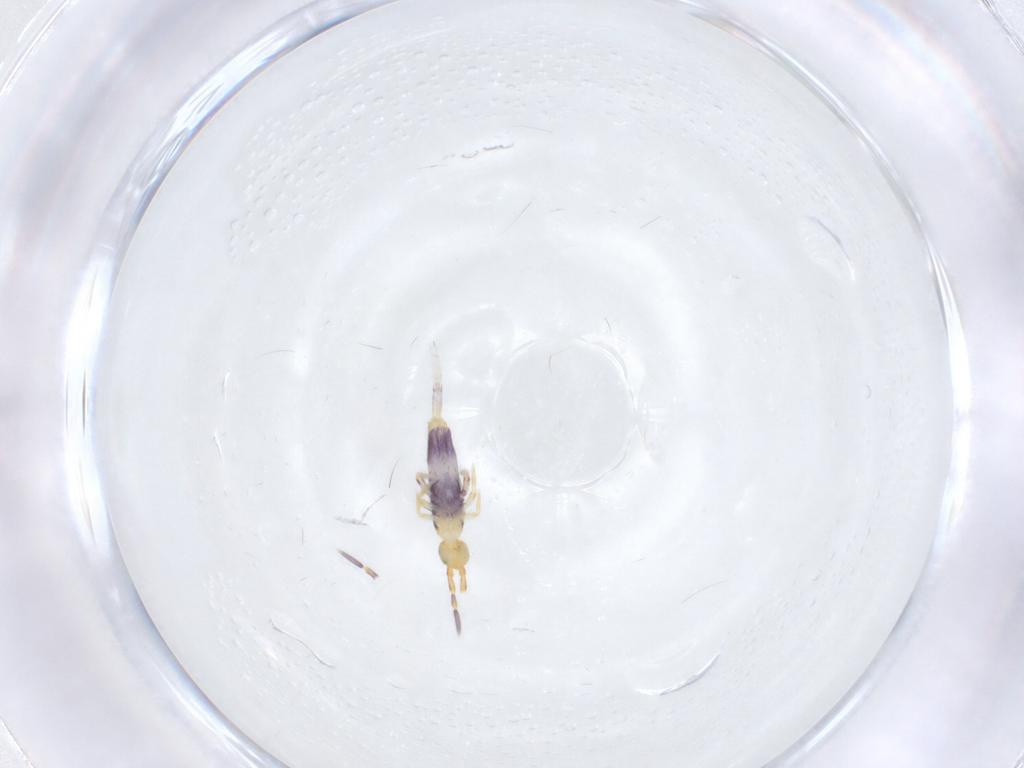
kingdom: Animalia
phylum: Arthropoda
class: Collembola
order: Entomobryomorpha
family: Entomobryidae
